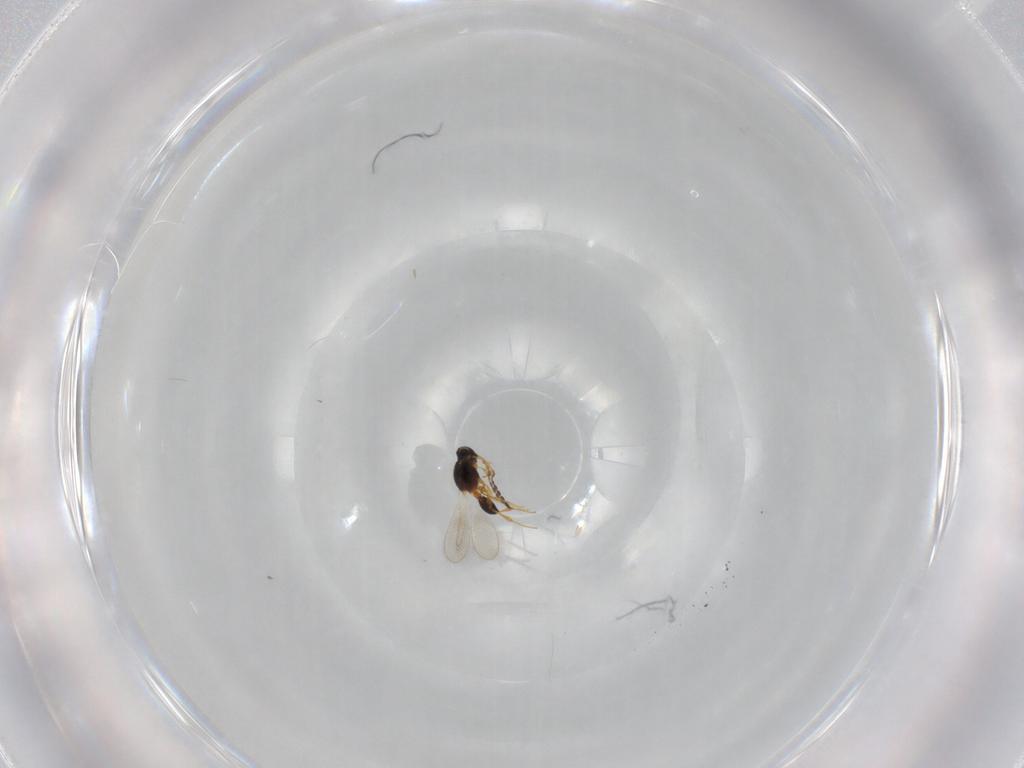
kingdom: Animalia
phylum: Arthropoda
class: Insecta
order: Hymenoptera
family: Platygastridae
